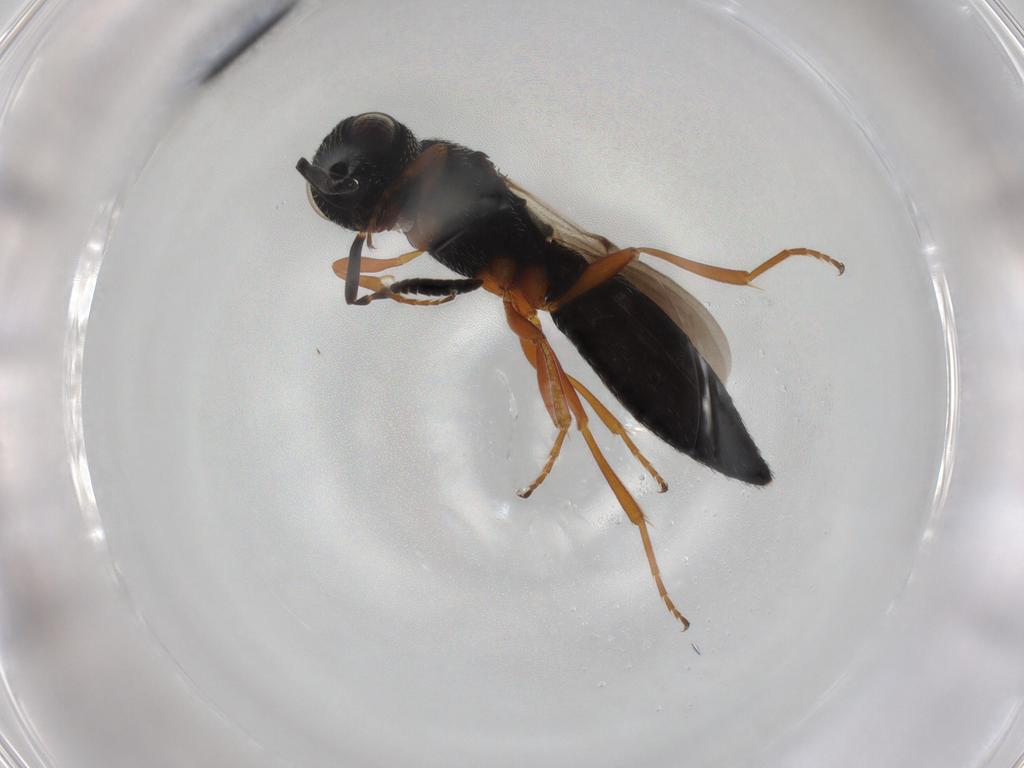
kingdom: Animalia
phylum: Arthropoda
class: Insecta
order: Hymenoptera
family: Scelionidae
